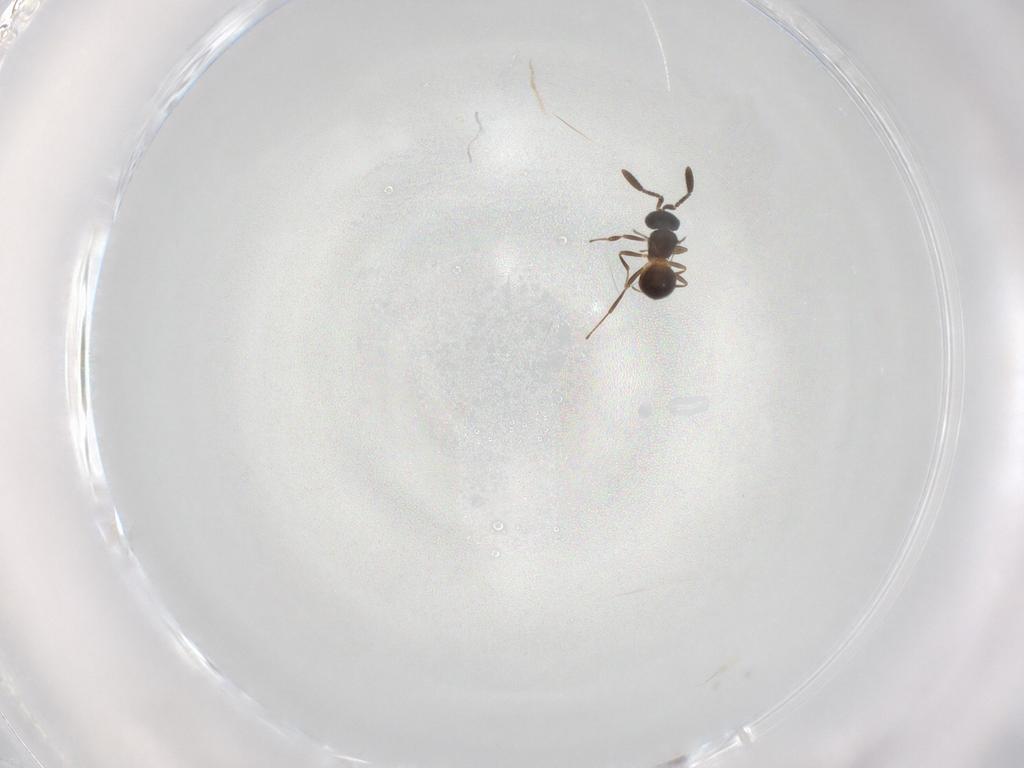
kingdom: Animalia
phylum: Arthropoda
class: Insecta
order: Hymenoptera
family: Scelionidae
